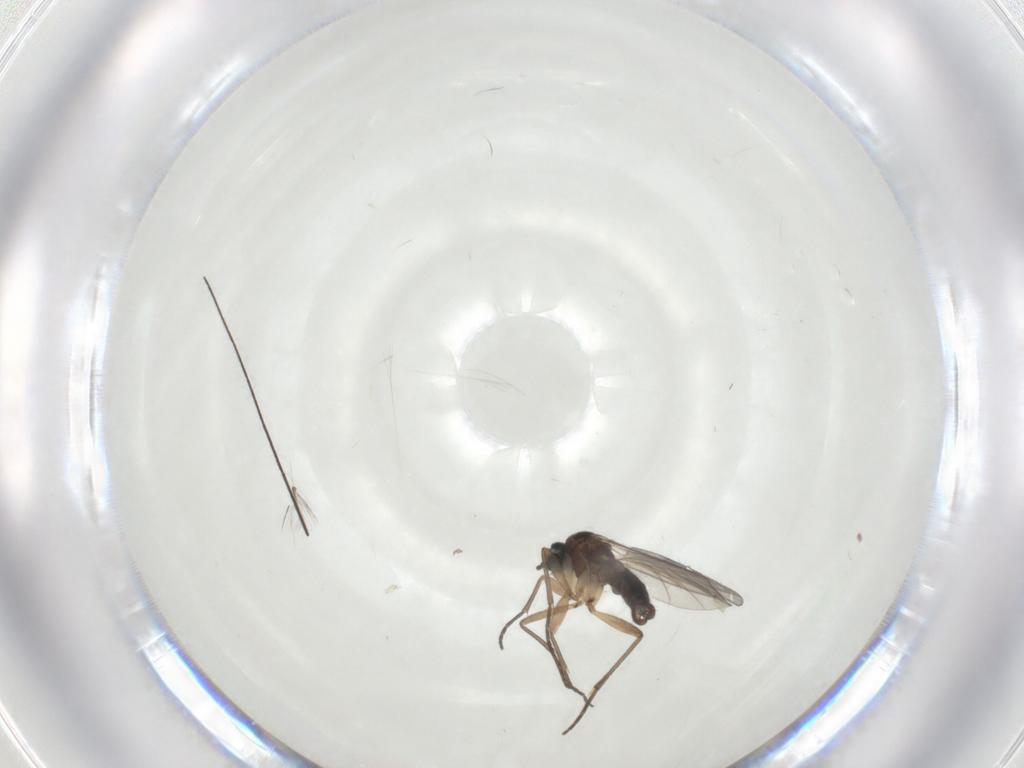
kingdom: Animalia
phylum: Arthropoda
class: Insecta
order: Diptera
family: Sciaridae
